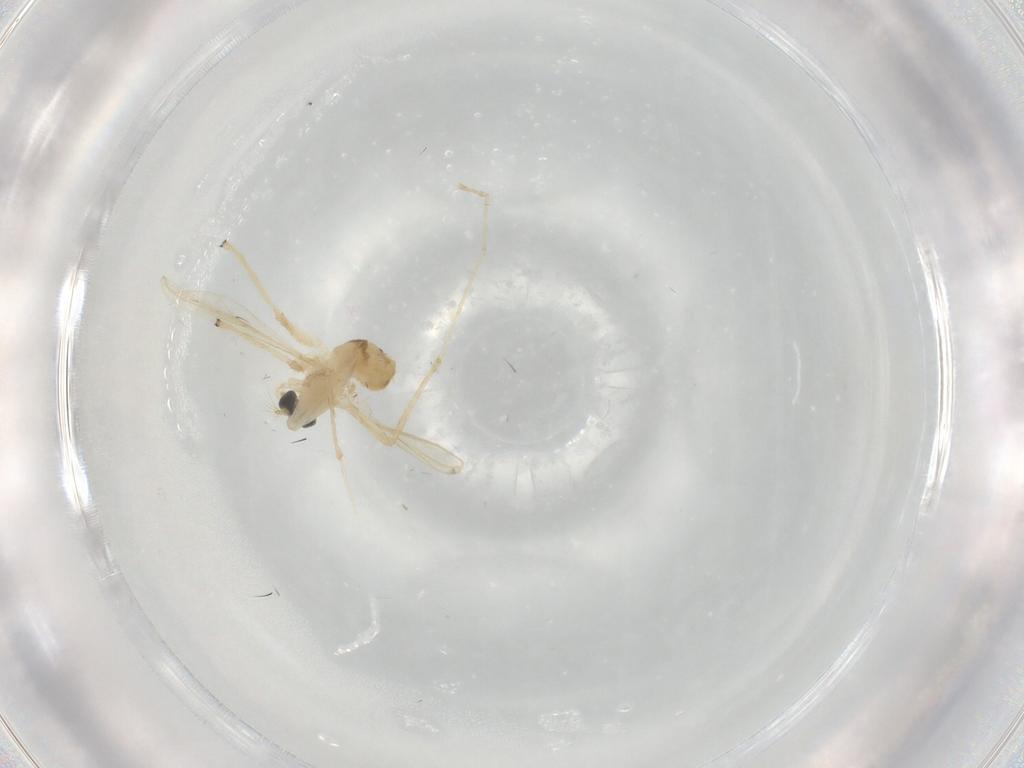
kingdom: Animalia
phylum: Arthropoda
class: Insecta
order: Diptera
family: Chironomidae
